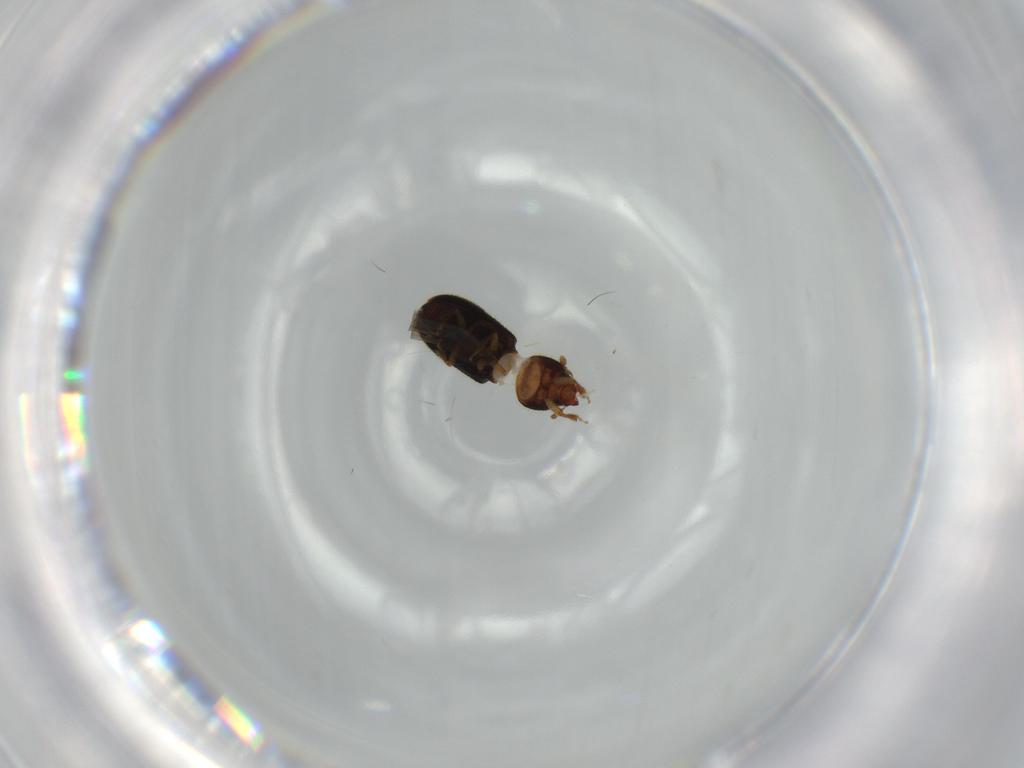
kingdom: Animalia
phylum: Arthropoda
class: Insecta
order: Coleoptera
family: Curculionidae
